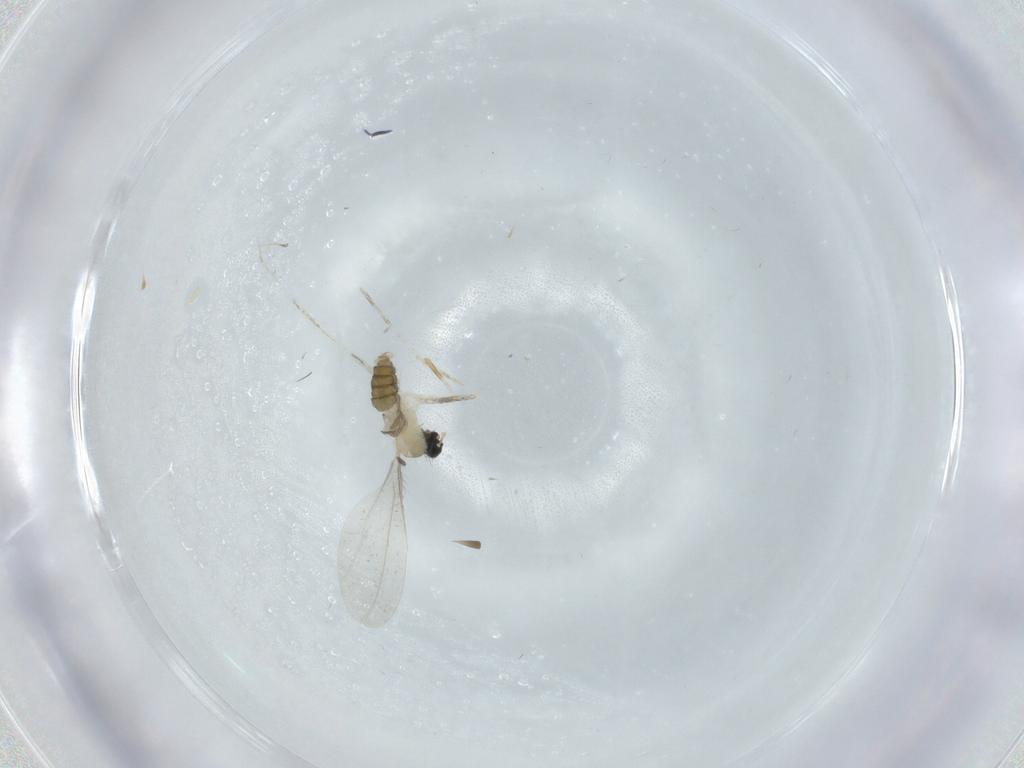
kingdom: Animalia
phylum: Arthropoda
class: Insecta
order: Diptera
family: Cecidomyiidae
